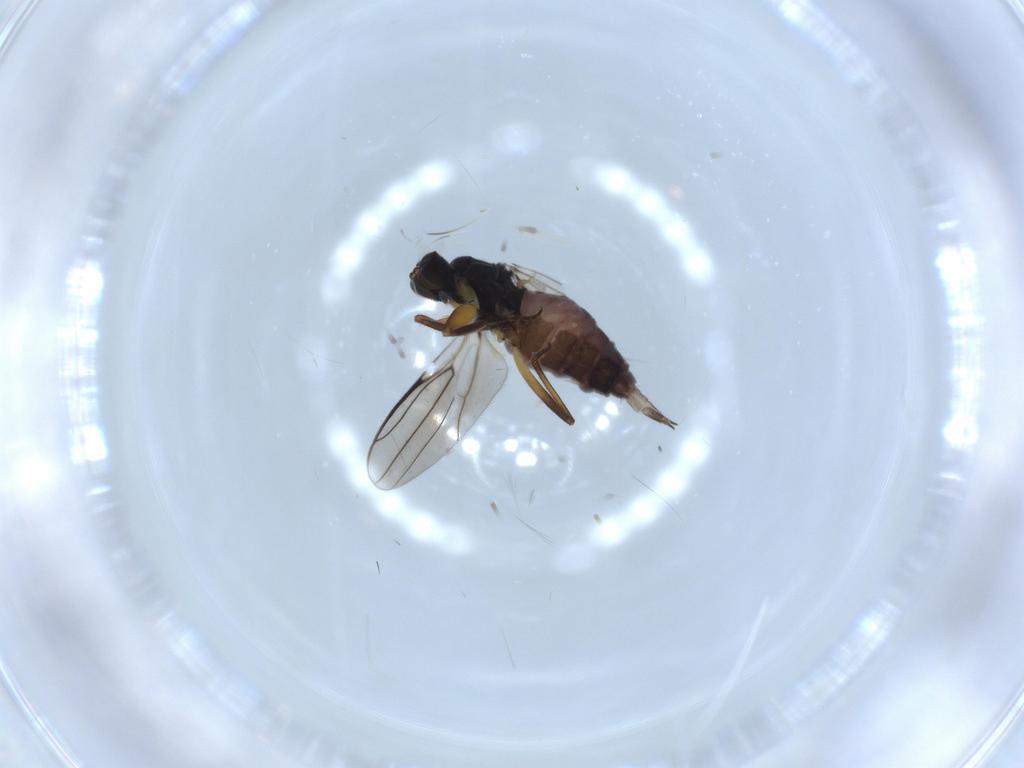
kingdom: Animalia
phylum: Arthropoda
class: Insecta
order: Diptera
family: Hybotidae
